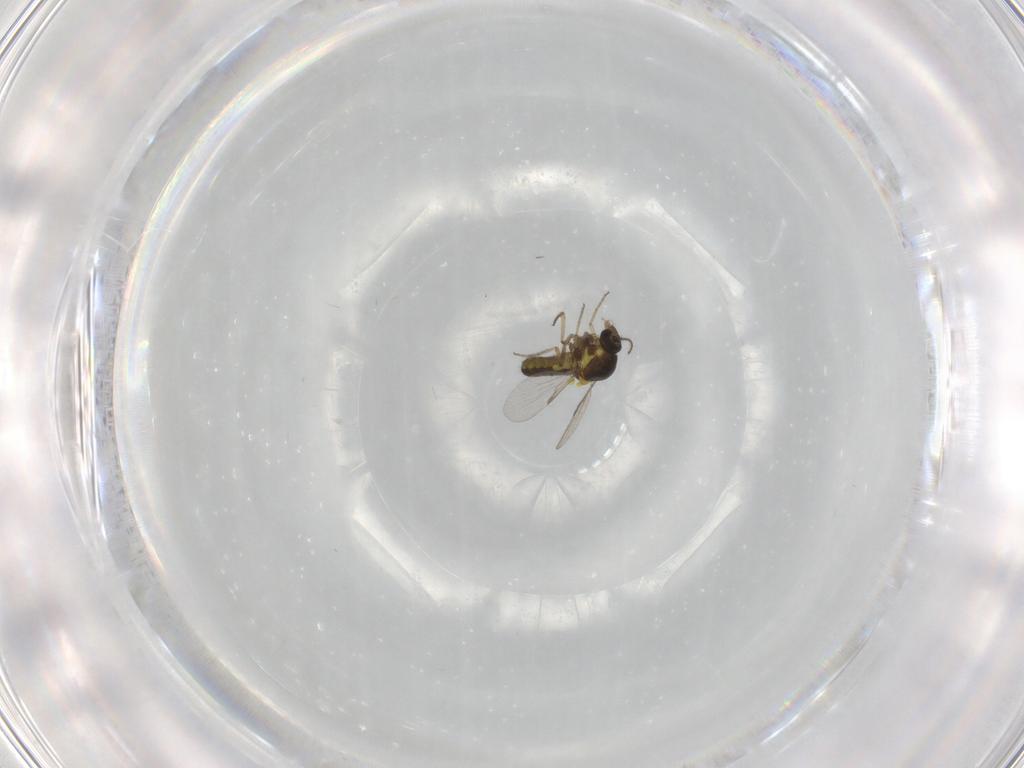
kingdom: Animalia
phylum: Arthropoda
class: Insecta
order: Diptera
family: Ceratopogonidae
